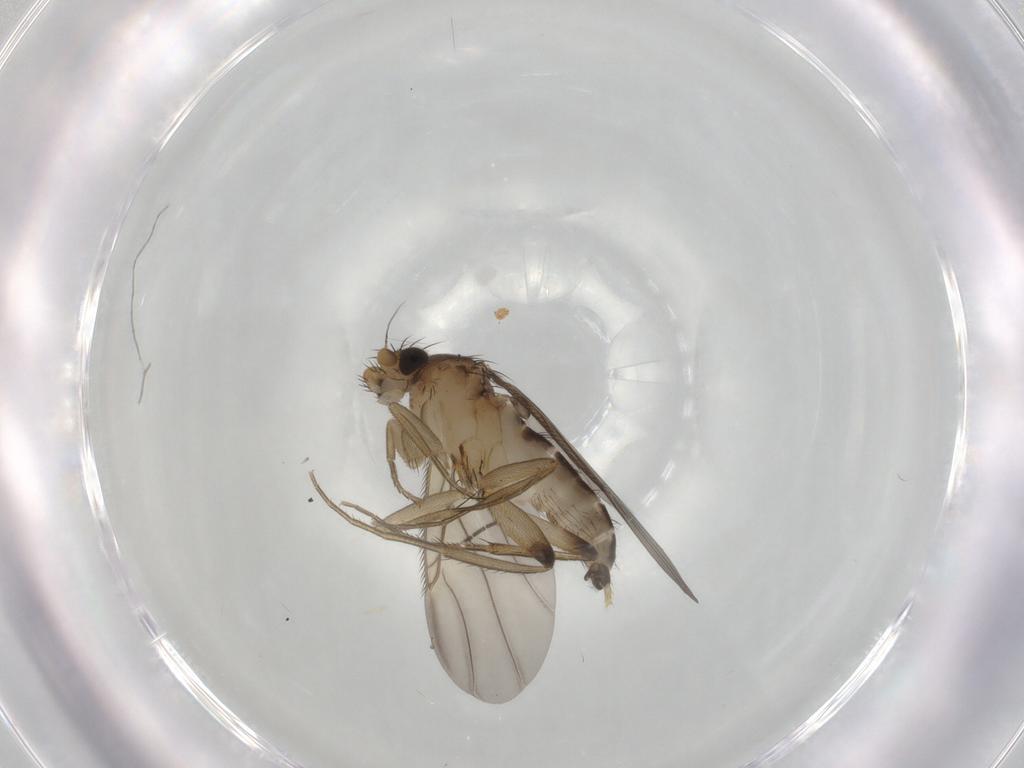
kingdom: Animalia
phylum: Arthropoda
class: Insecta
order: Diptera
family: Phoridae
